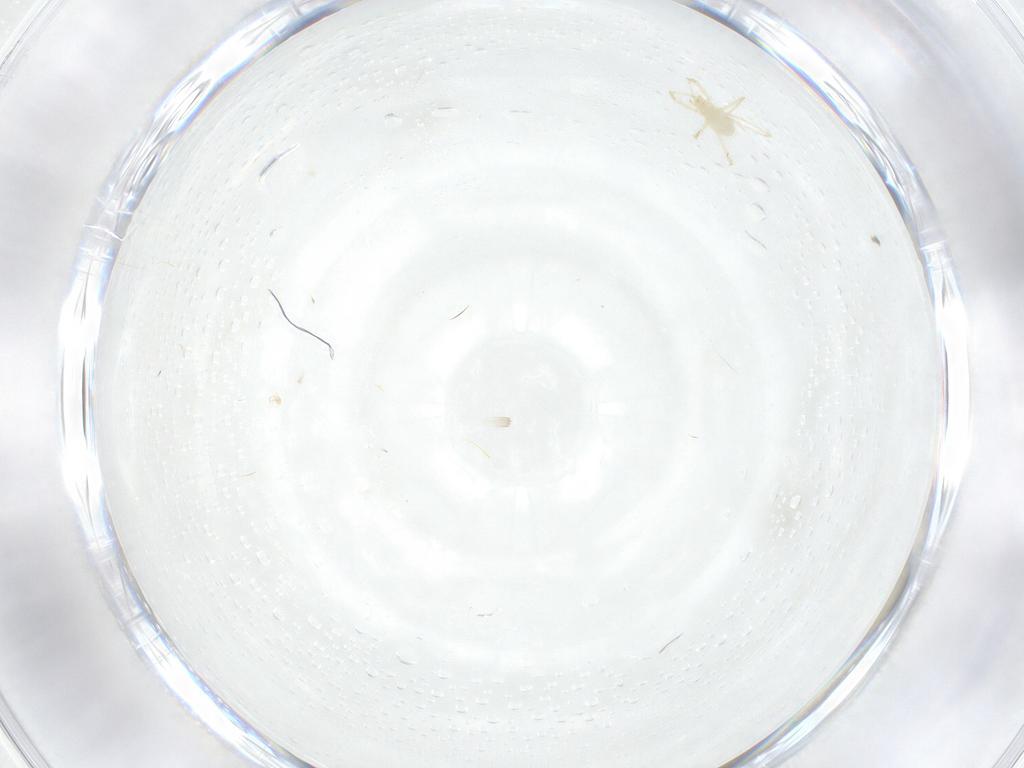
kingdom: Animalia
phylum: Arthropoda
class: Arachnida
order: Trombidiformes
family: Erythraeidae
